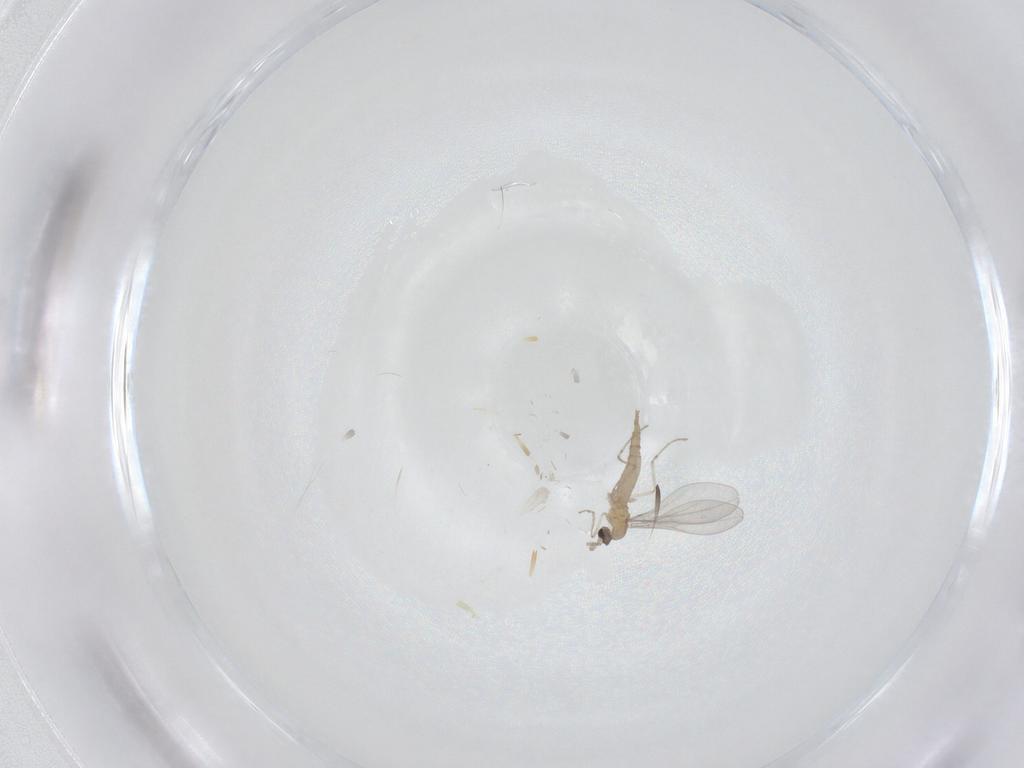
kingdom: Animalia
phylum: Arthropoda
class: Insecta
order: Diptera
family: Cecidomyiidae
